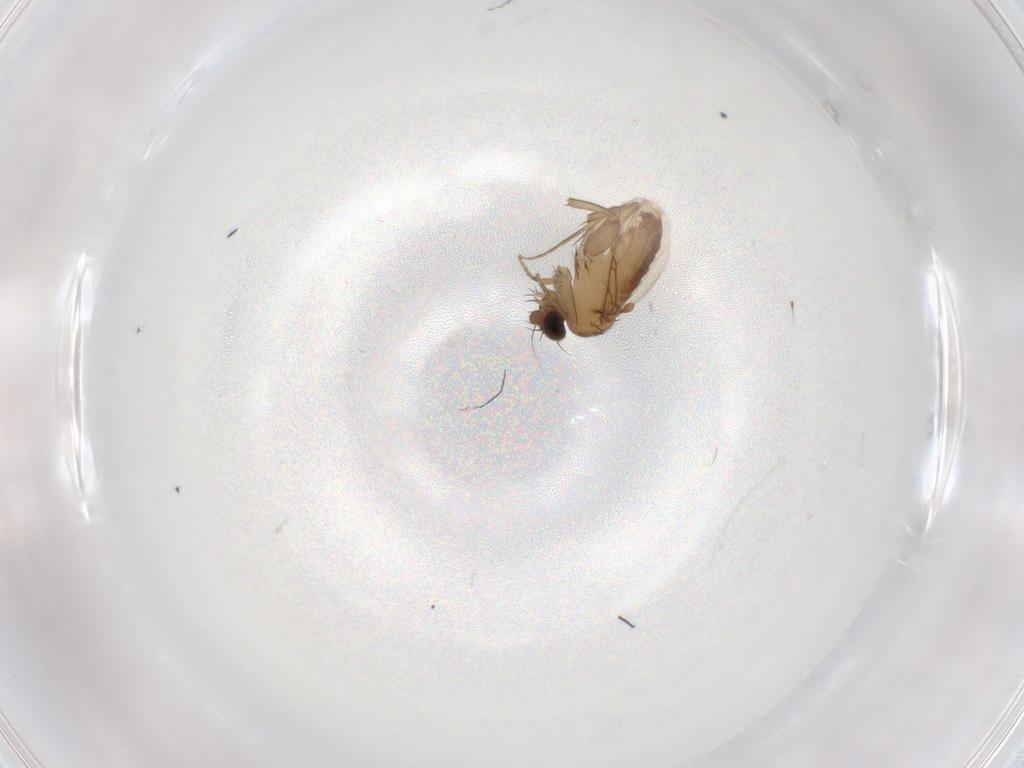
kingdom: Animalia
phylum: Arthropoda
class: Insecta
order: Diptera
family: Phoridae
